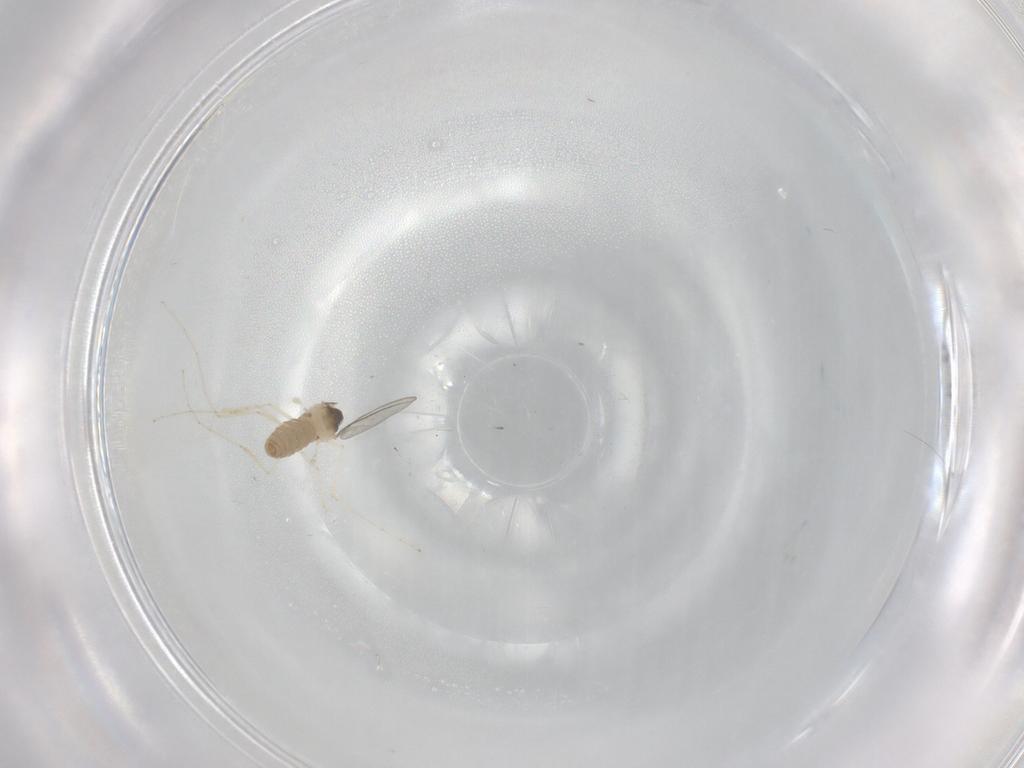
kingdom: Animalia
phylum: Arthropoda
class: Insecta
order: Diptera
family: Cecidomyiidae
